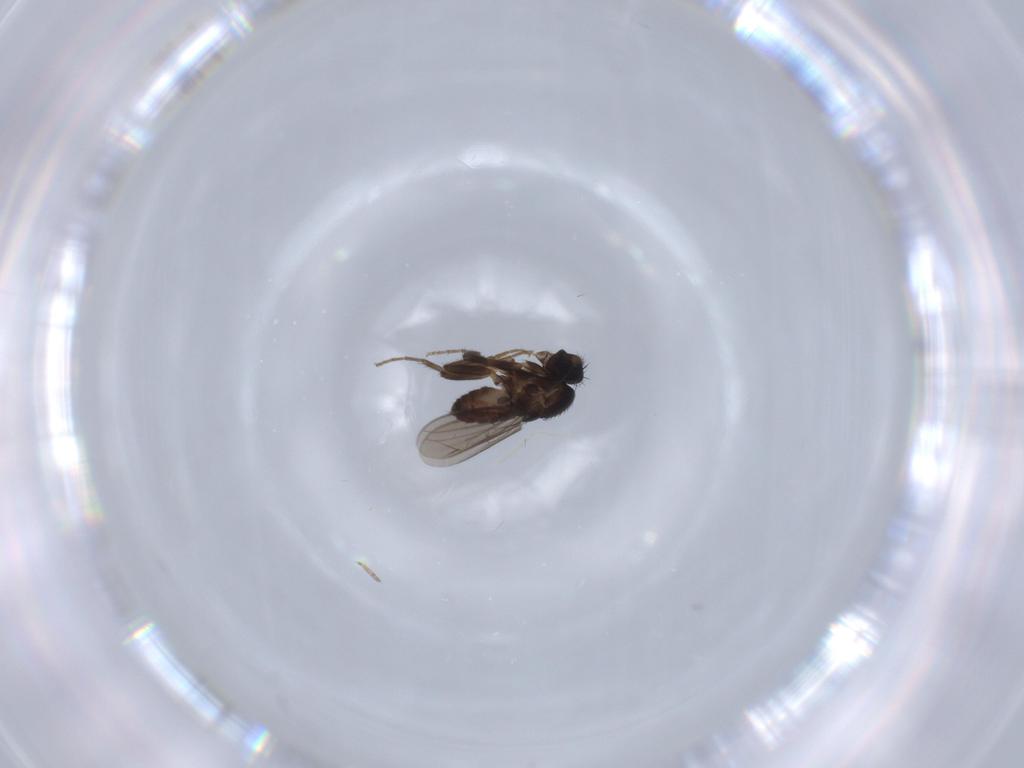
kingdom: Animalia
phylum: Arthropoda
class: Insecta
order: Diptera
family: Sphaeroceridae
